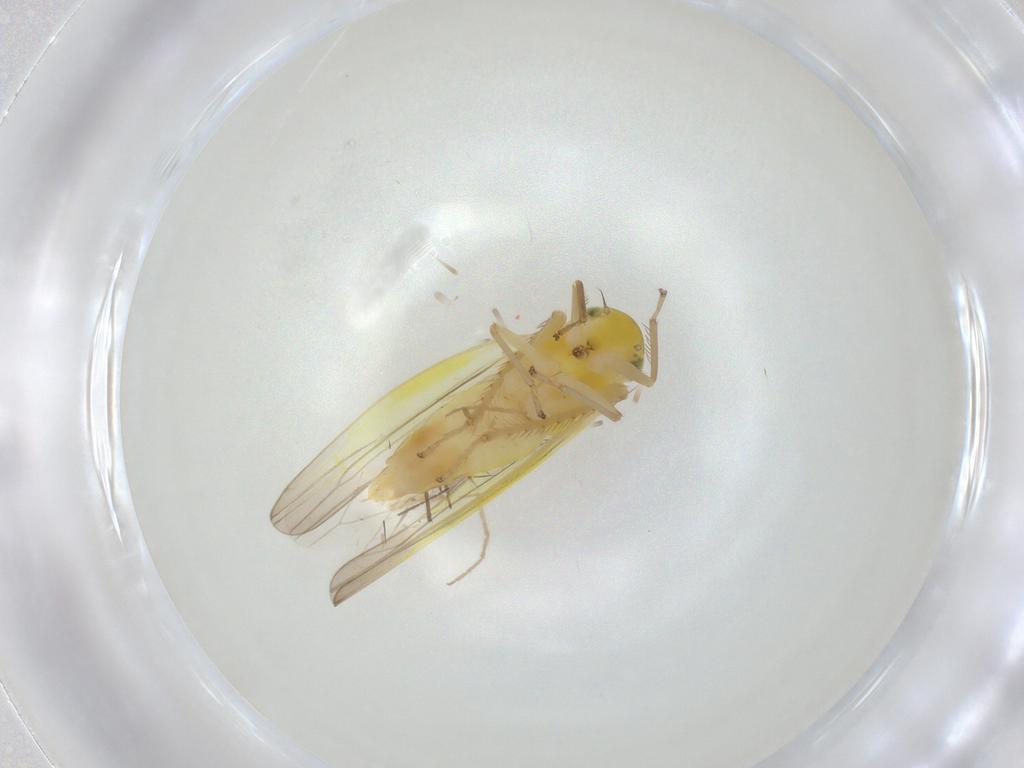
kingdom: Animalia
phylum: Arthropoda
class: Insecta
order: Hemiptera
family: Cicadellidae
